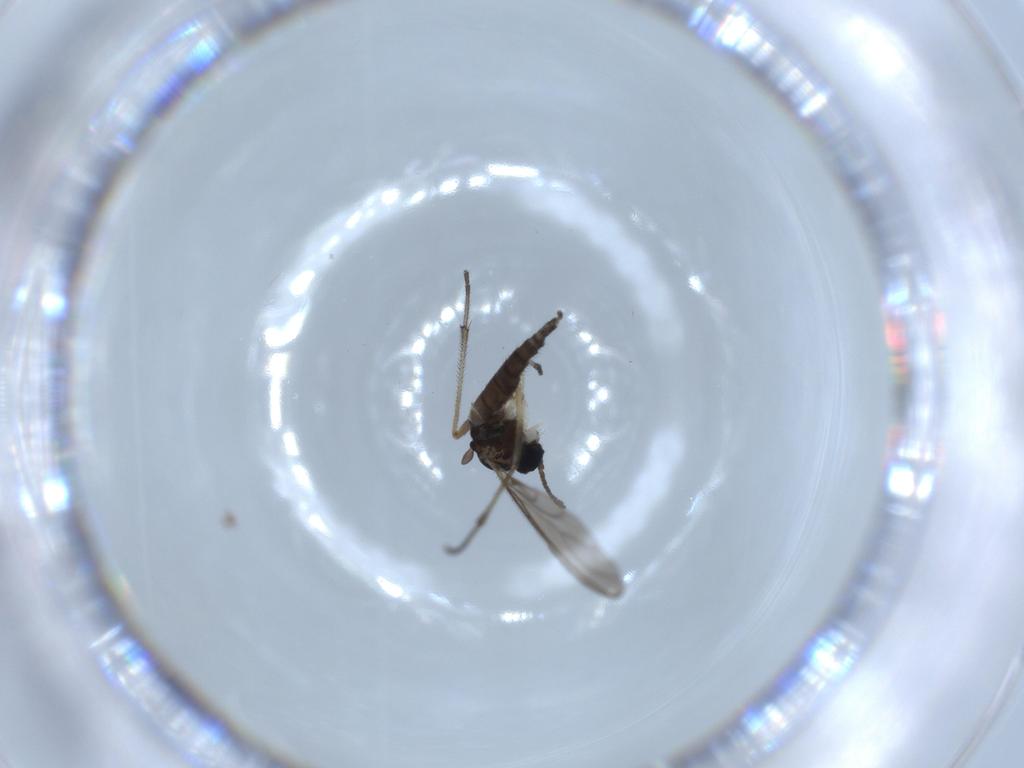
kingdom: Animalia
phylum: Arthropoda
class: Insecta
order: Diptera
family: Sciaridae
